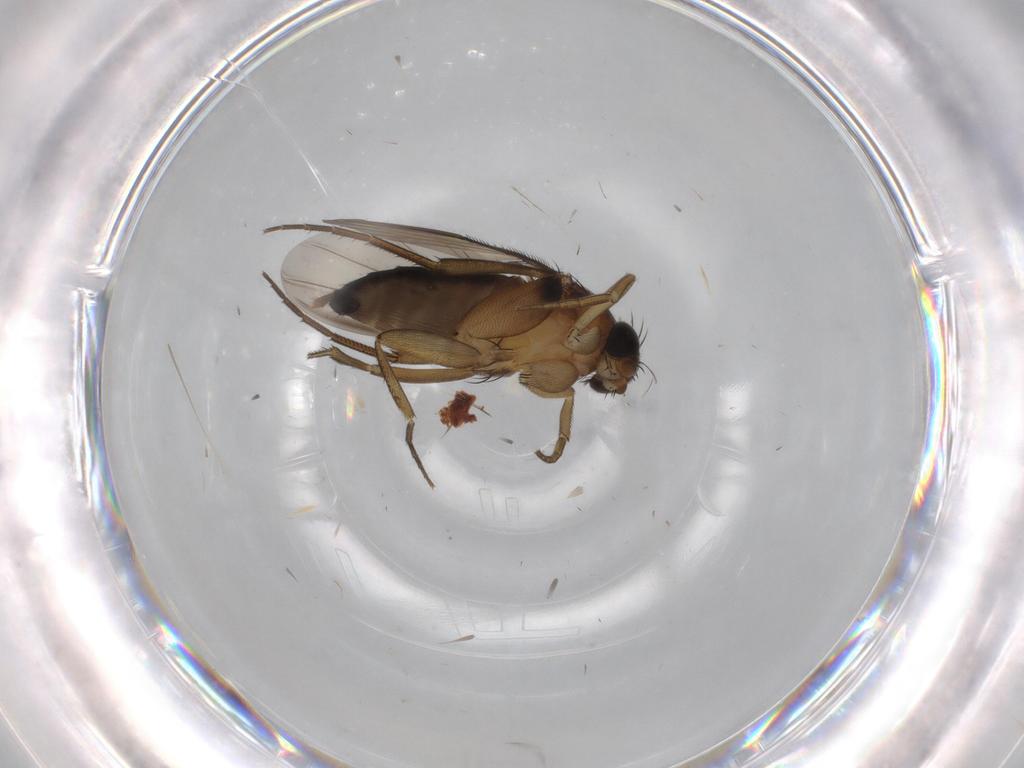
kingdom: Animalia
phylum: Arthropoda
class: Insecta
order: Diptera
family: Phoridae
